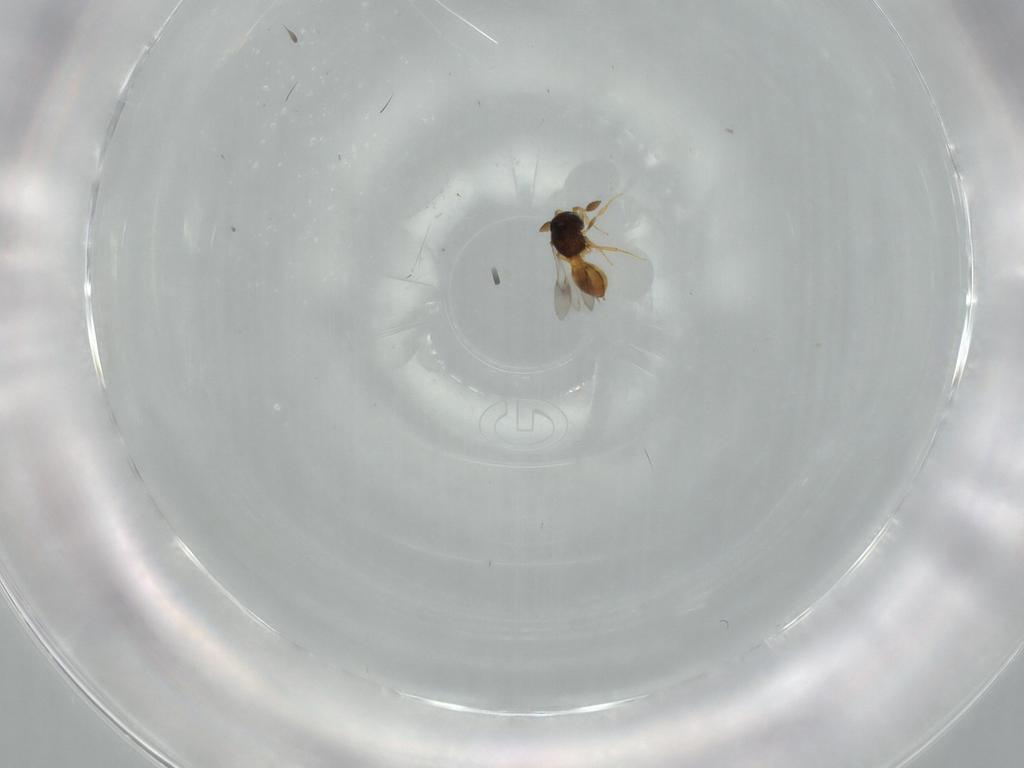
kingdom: Animalia
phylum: Arthropoda
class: Insecta
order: Hymenoptera
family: Scelionidae
